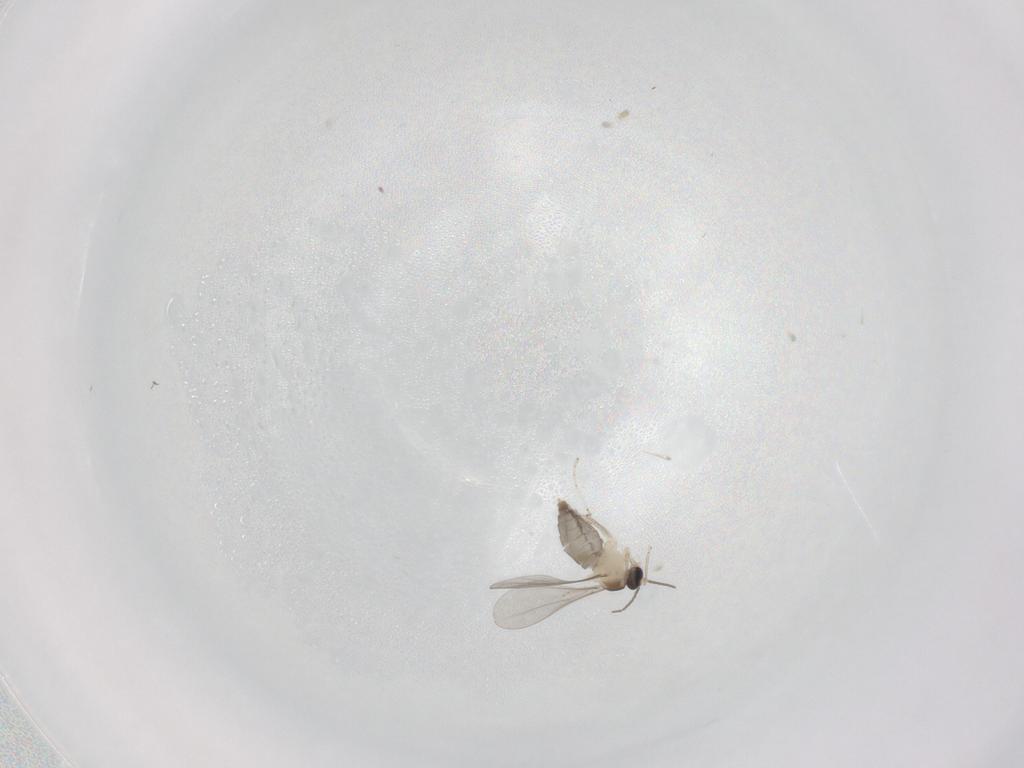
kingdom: Animalia
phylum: Arthropoda
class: Insecta
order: Diptera
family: Cecidomyiidae
